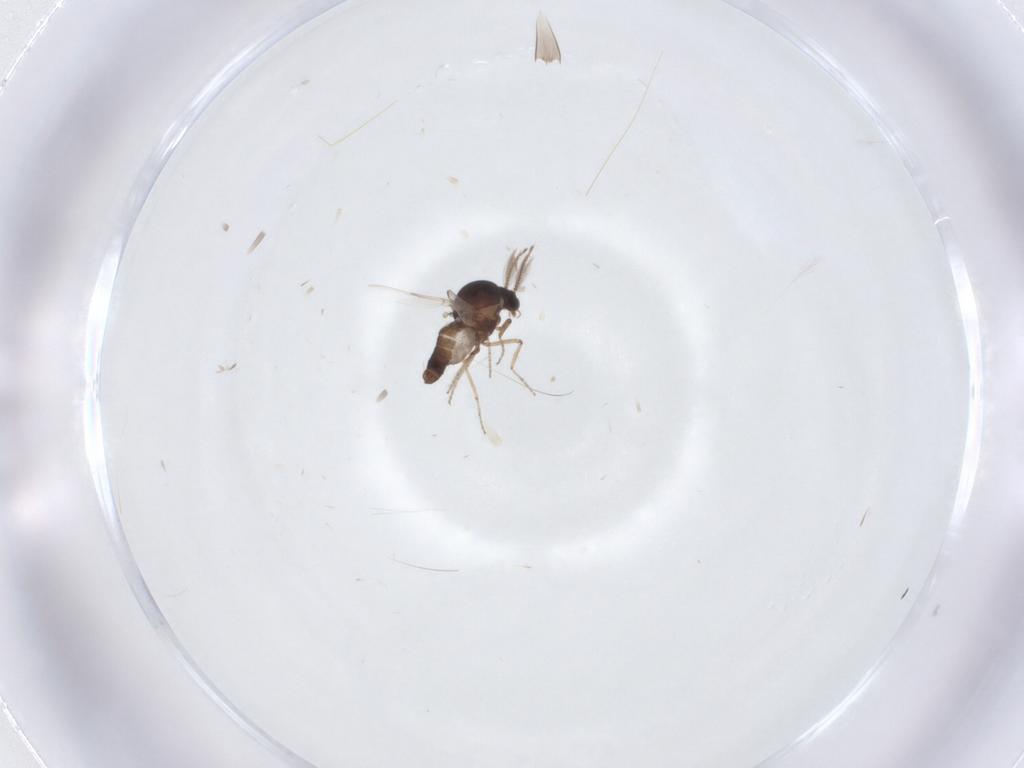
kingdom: Animalia
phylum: Arthropoda
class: Insecta
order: Diptera
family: Ceratopogonidae
